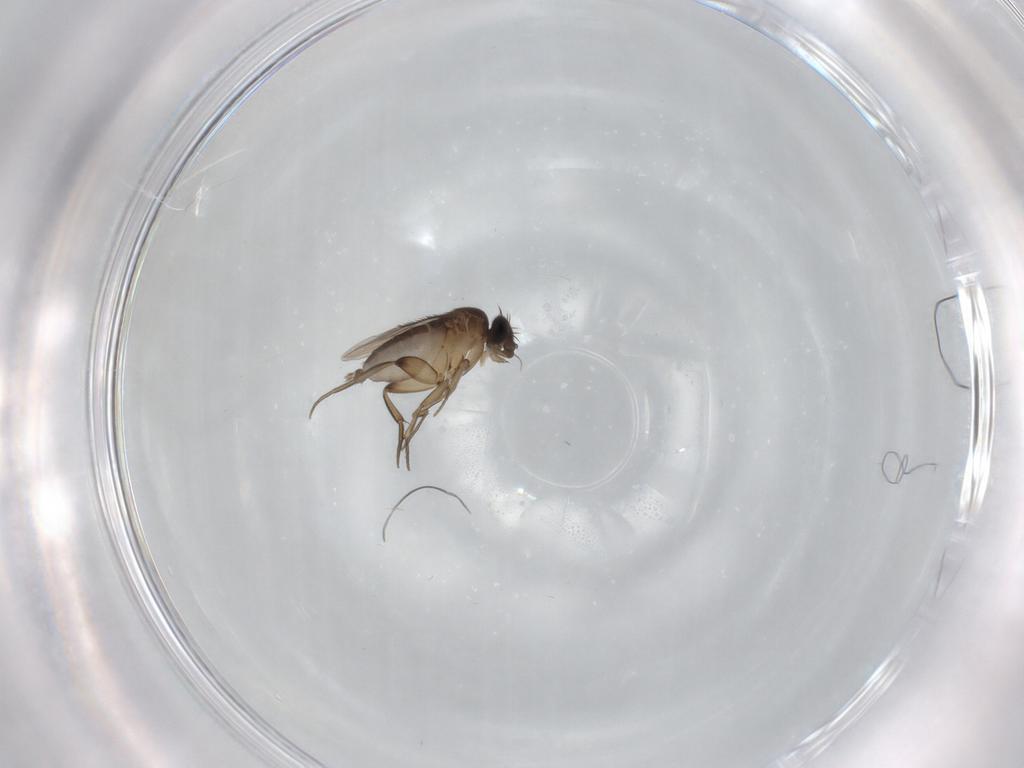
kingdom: Animalia
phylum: Arthropoda
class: Insecta
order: Diptera
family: Phoridae
